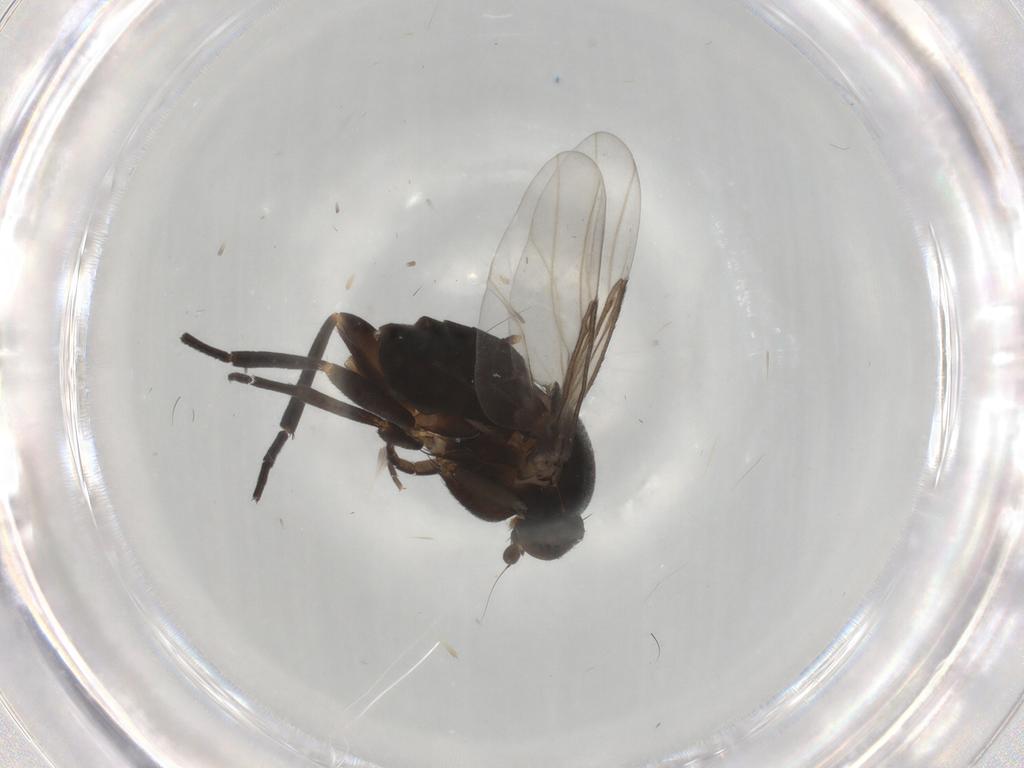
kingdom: Animalia
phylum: Arthropoda
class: Insecta
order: Diptera
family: Phoridae
